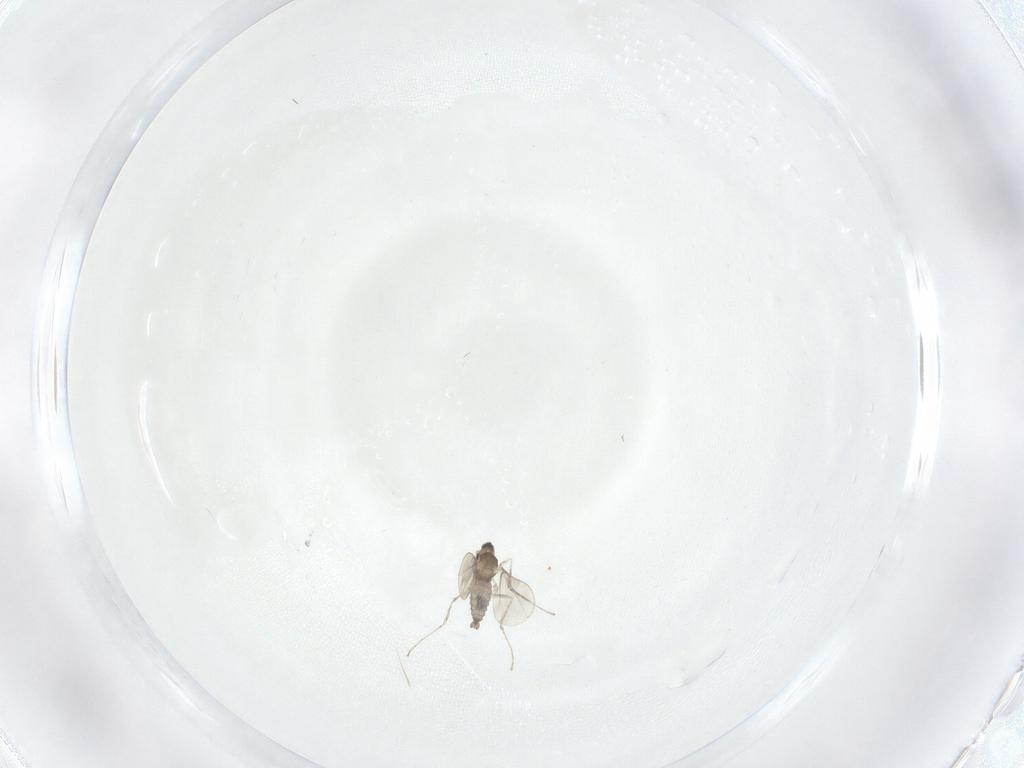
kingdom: Animalia
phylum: Arthropoda
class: Insecta
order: Diptera
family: Cecidomyiidae
